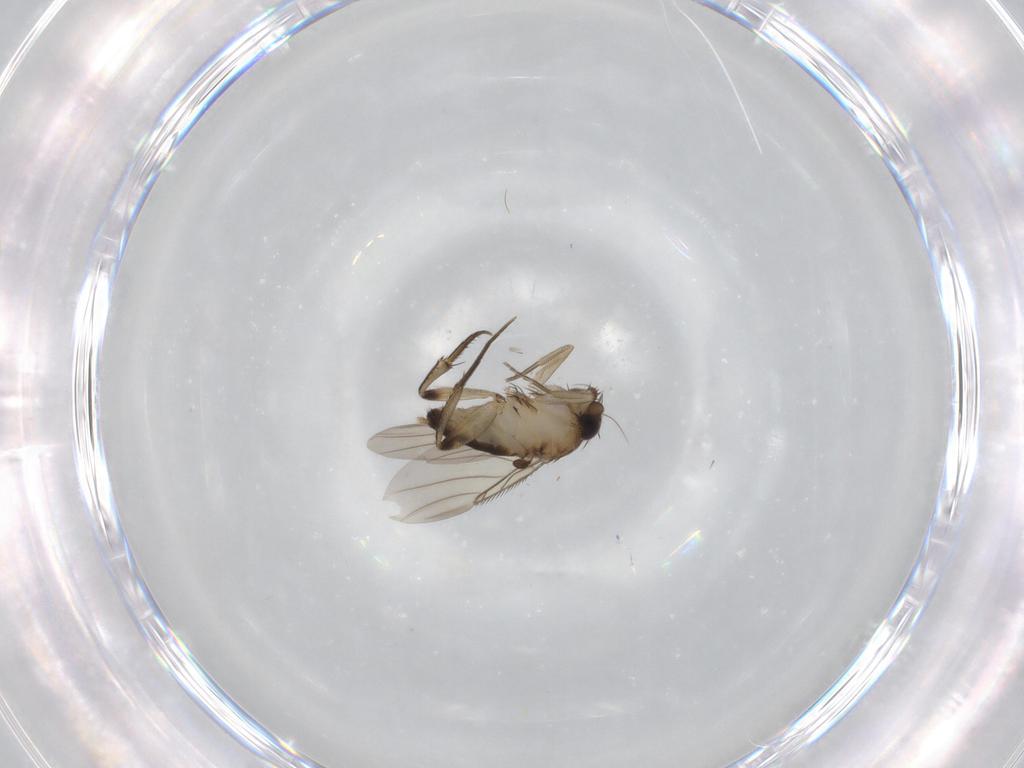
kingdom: Animalia
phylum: Arthropoda
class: Insecta
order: Diptera
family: Phoridae
